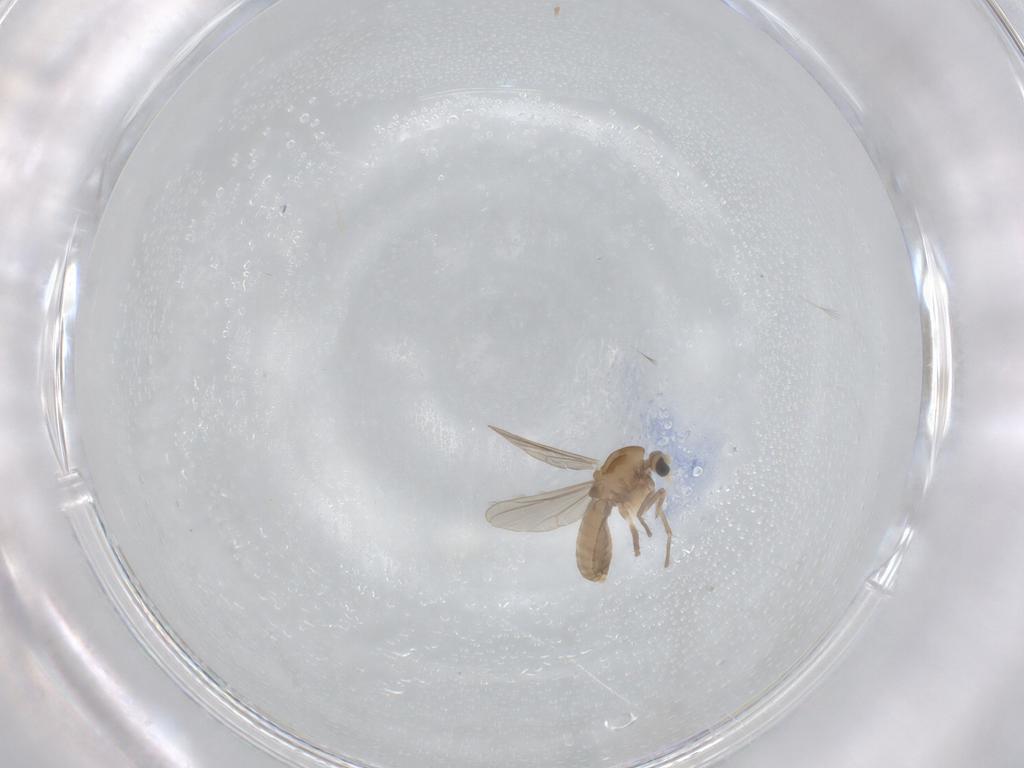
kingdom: Animalia
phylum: Arthropoda
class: Insecta
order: Diptera
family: Chironomidae
